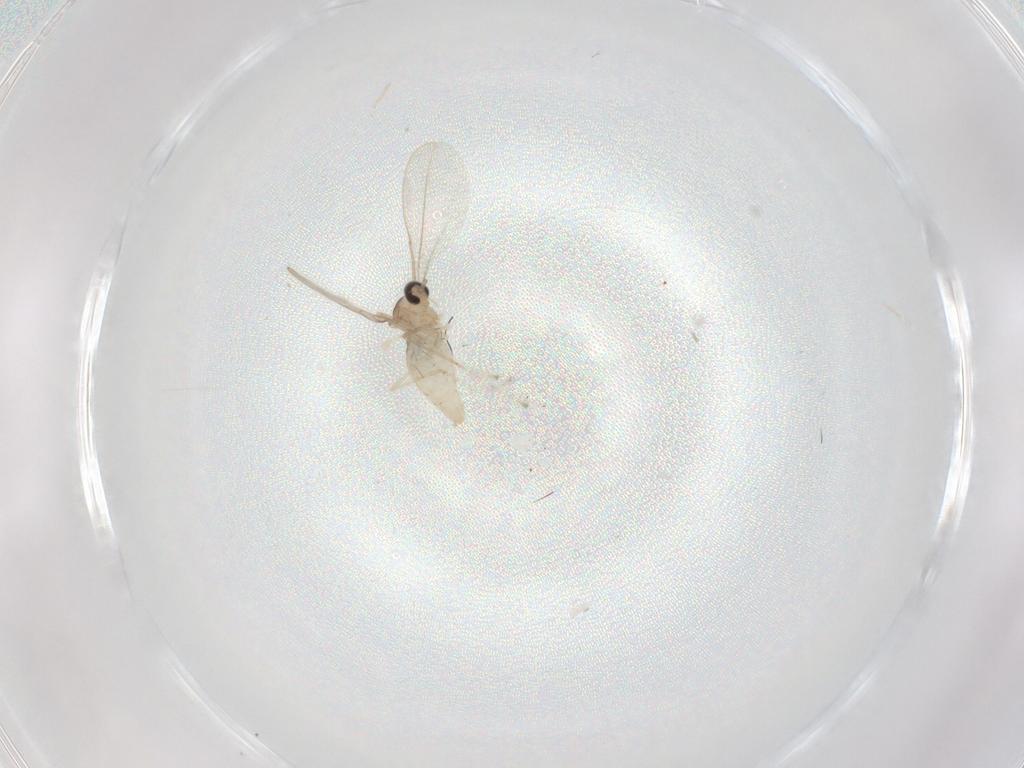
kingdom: Animalia
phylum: Arthropoda
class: Insecta
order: Diptera
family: Cecidomyiidae
